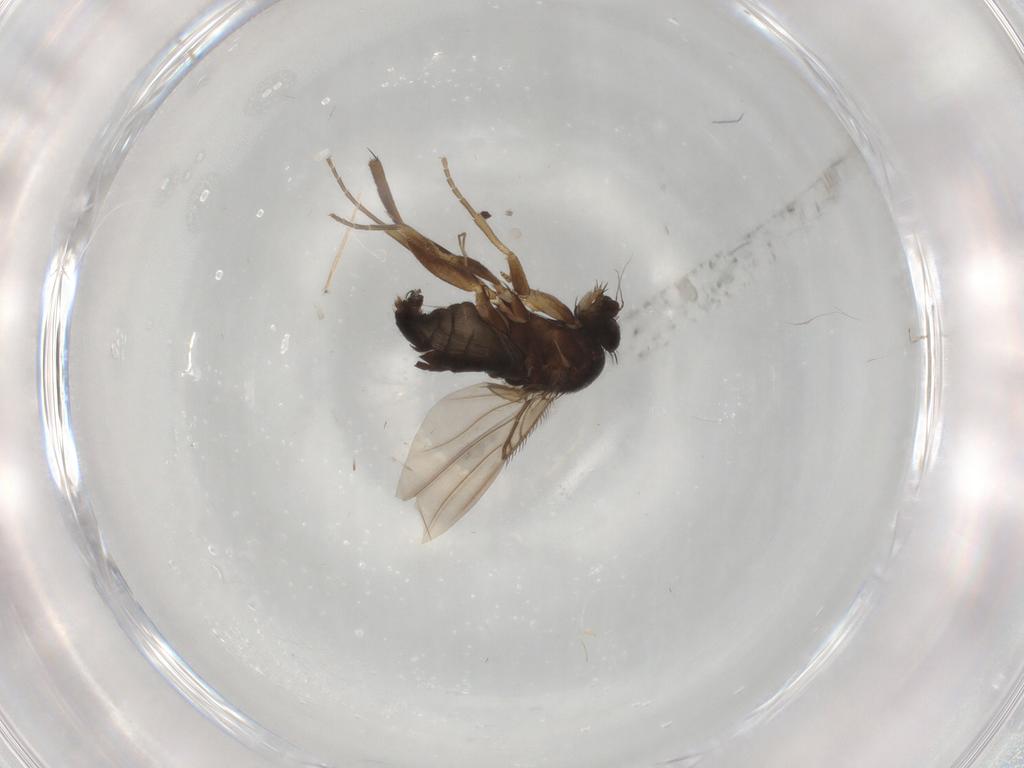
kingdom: Animalia
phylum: Arthropoda
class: Insecta
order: Diptera
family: Phoridae
